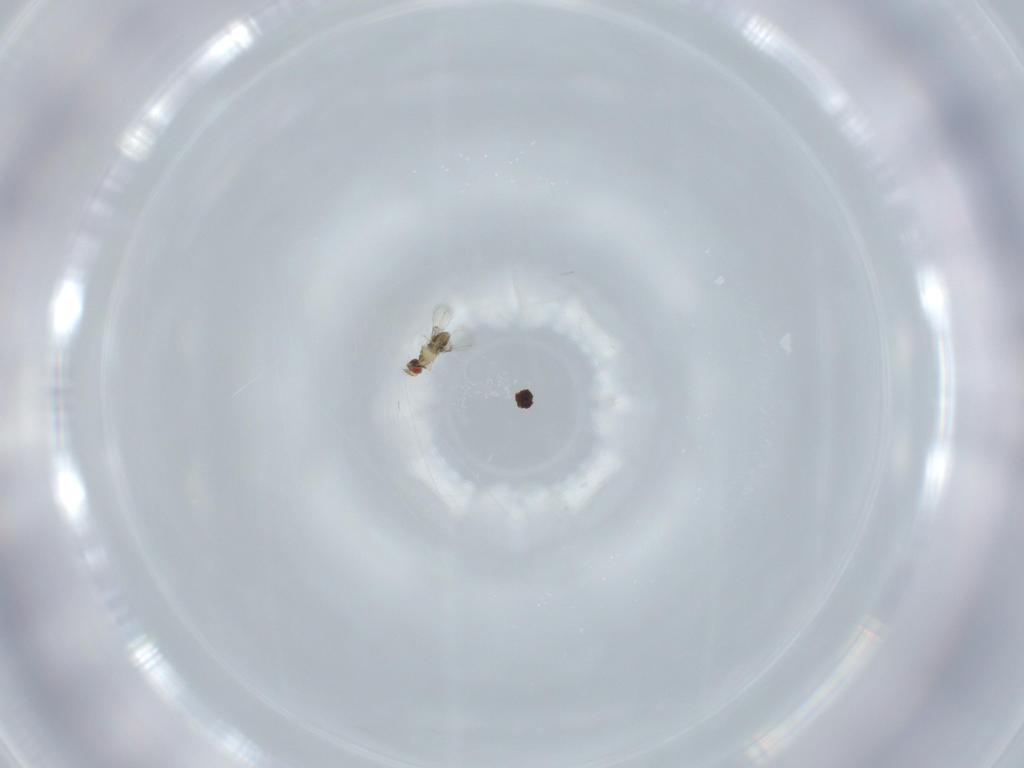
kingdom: Animalia
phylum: Arthropoda
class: Insecta
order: Hymenoptera
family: Trichogrammatidae
